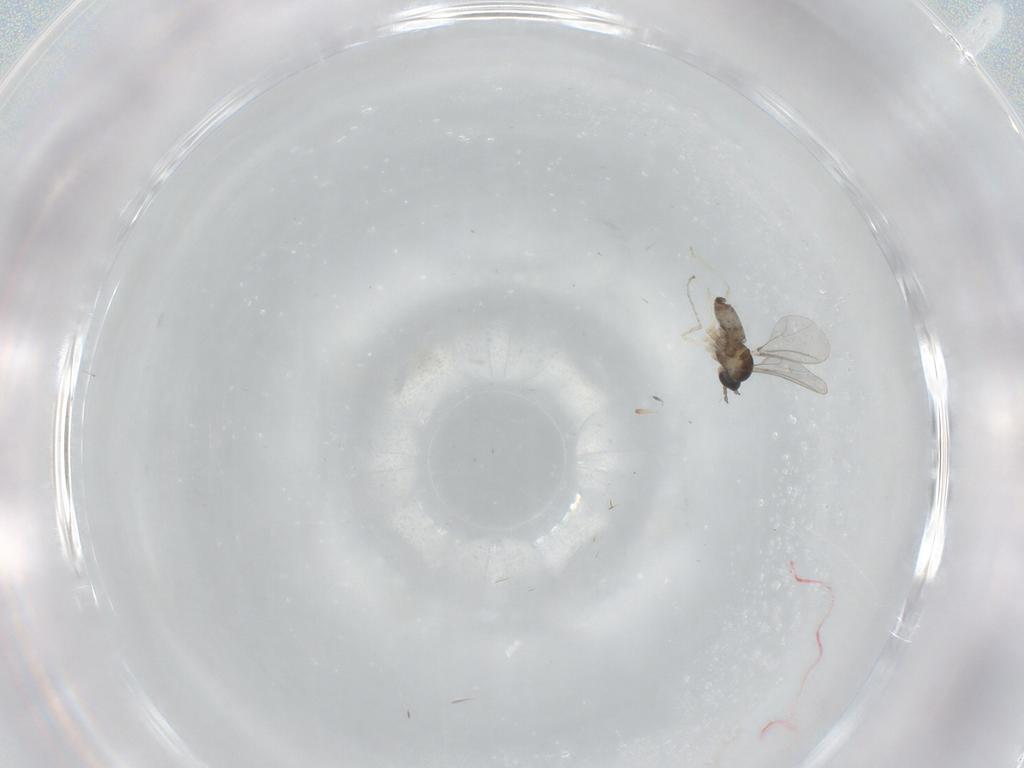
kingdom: Animalia
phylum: Arthropoda
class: Insecta
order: Diptera
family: Cecidomyiidae
